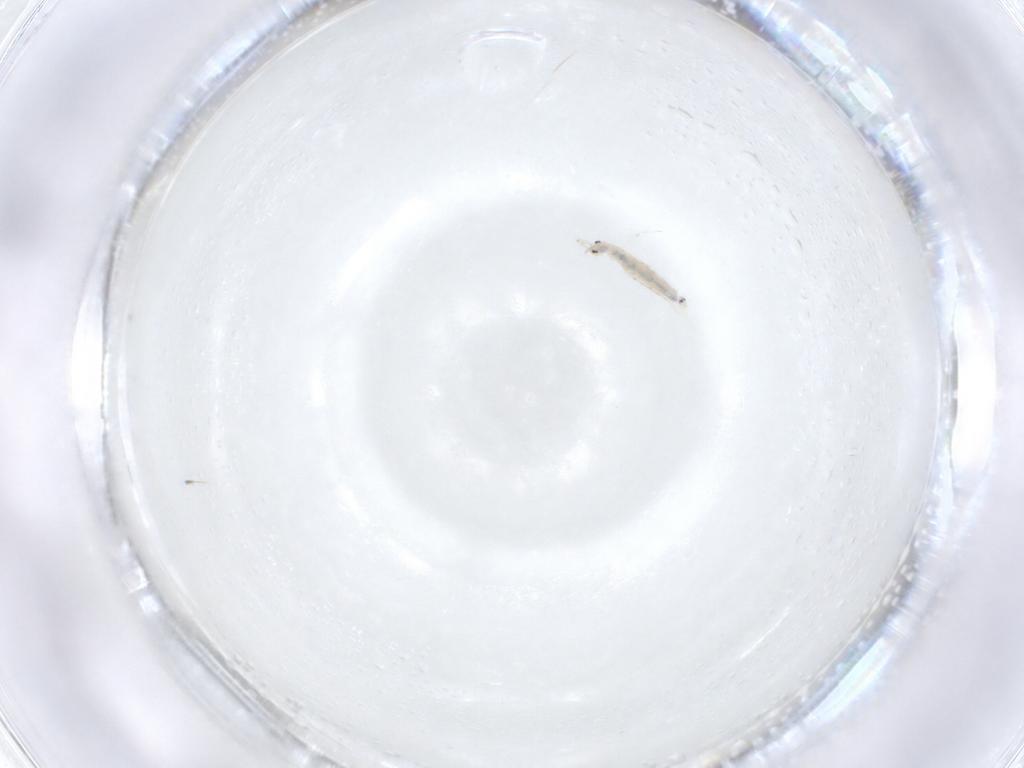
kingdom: Animalia
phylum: Arthropoda
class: Insecta
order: Diptera
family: Chironomidae
